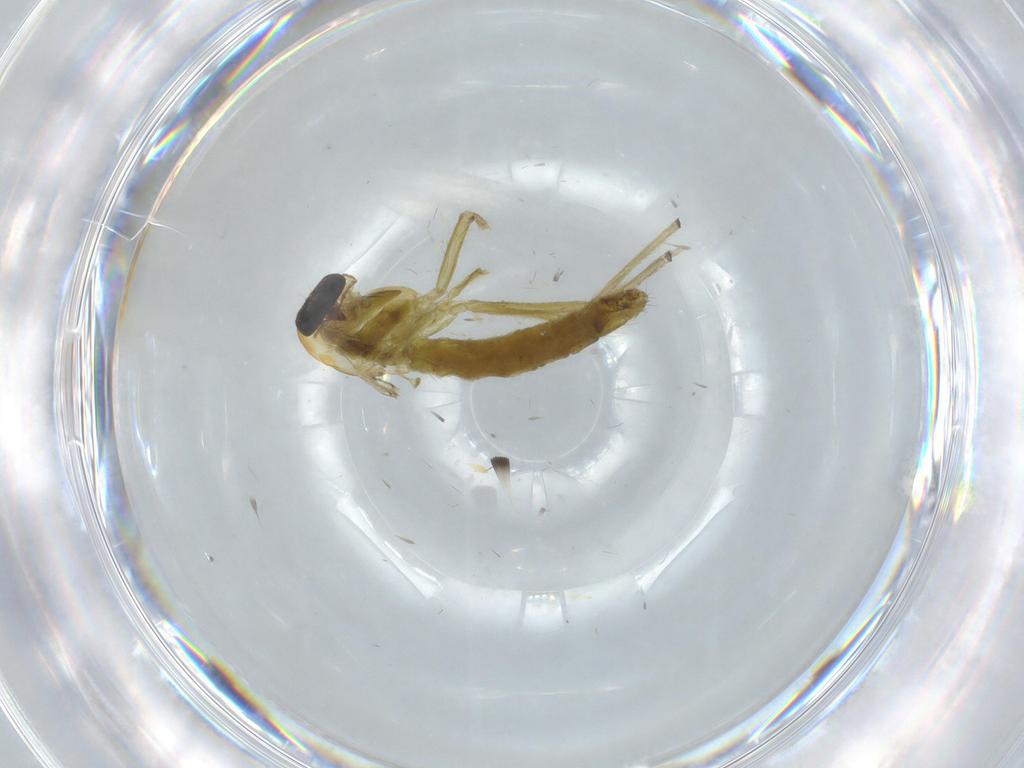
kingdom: Animalia
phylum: Arthropoda
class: Insecta
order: Diptera
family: Chironomidae
